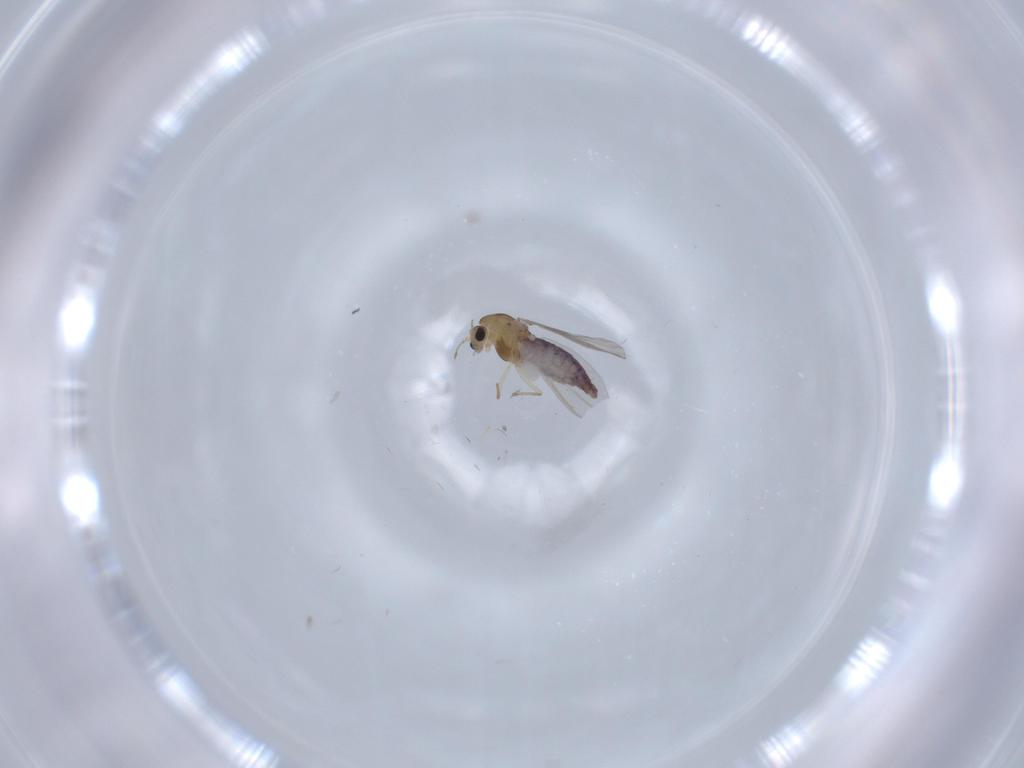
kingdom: Animalia
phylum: Arthropoda
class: Insecta
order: Diptera
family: Chironomidae
